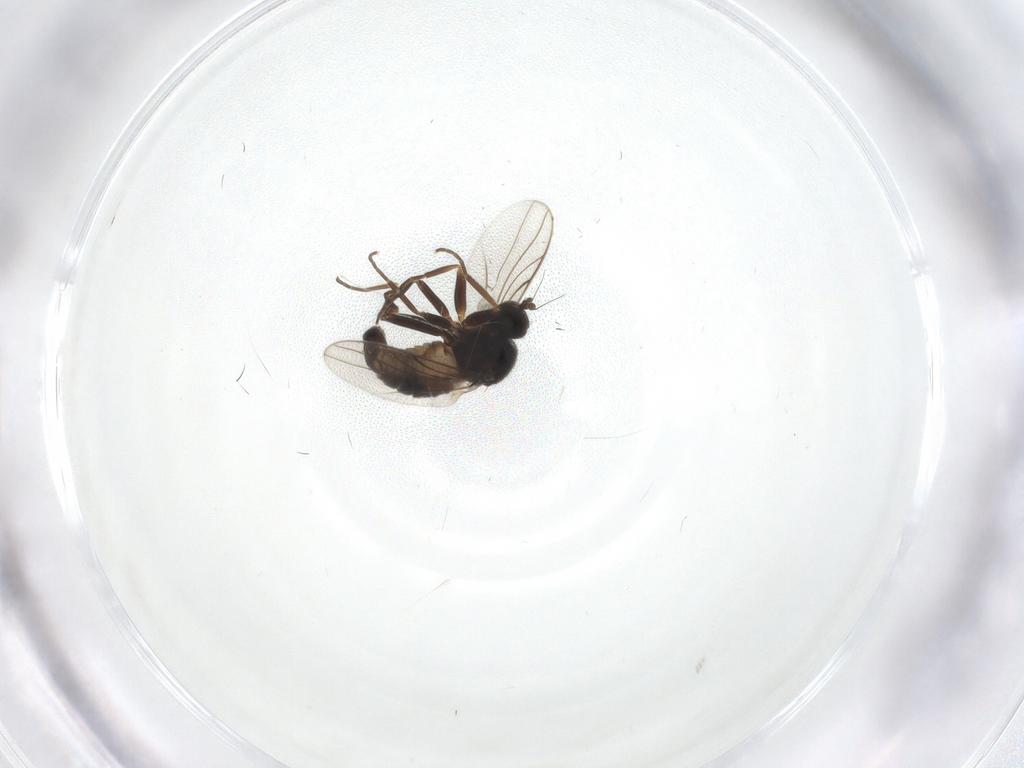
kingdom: Animalia
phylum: Arthropoda
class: Insecta
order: Diptera
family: Hybotidae
